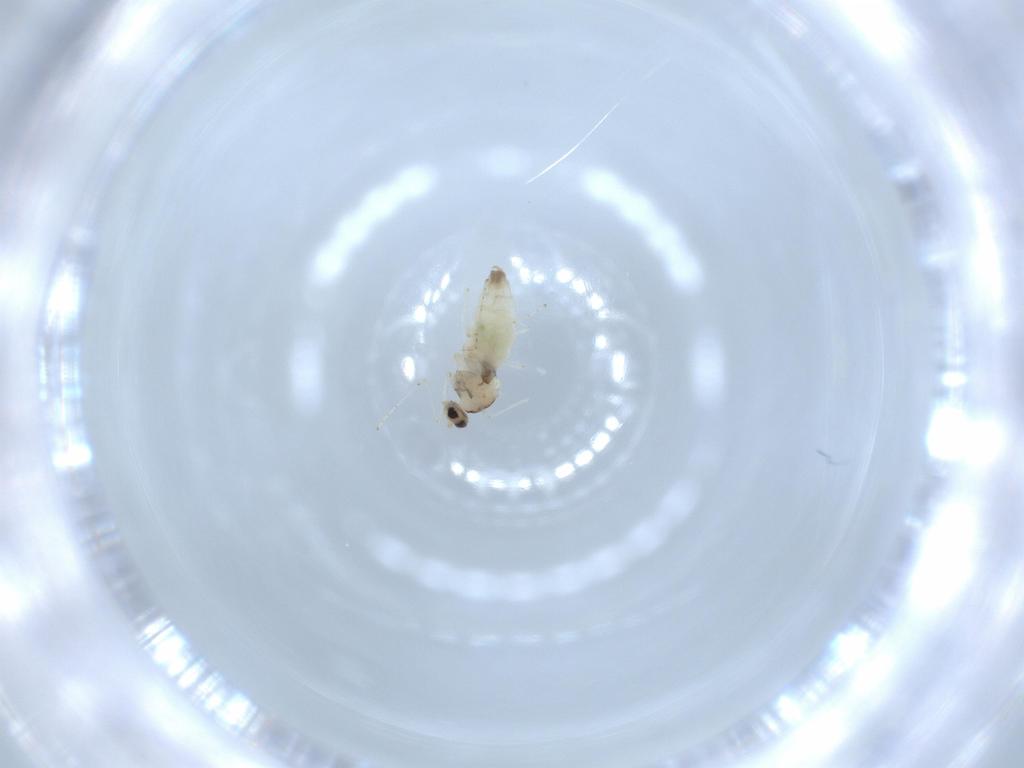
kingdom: Animalia
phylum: Arthropoda
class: Insecta
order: Diptera
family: Cecidomyiidae
